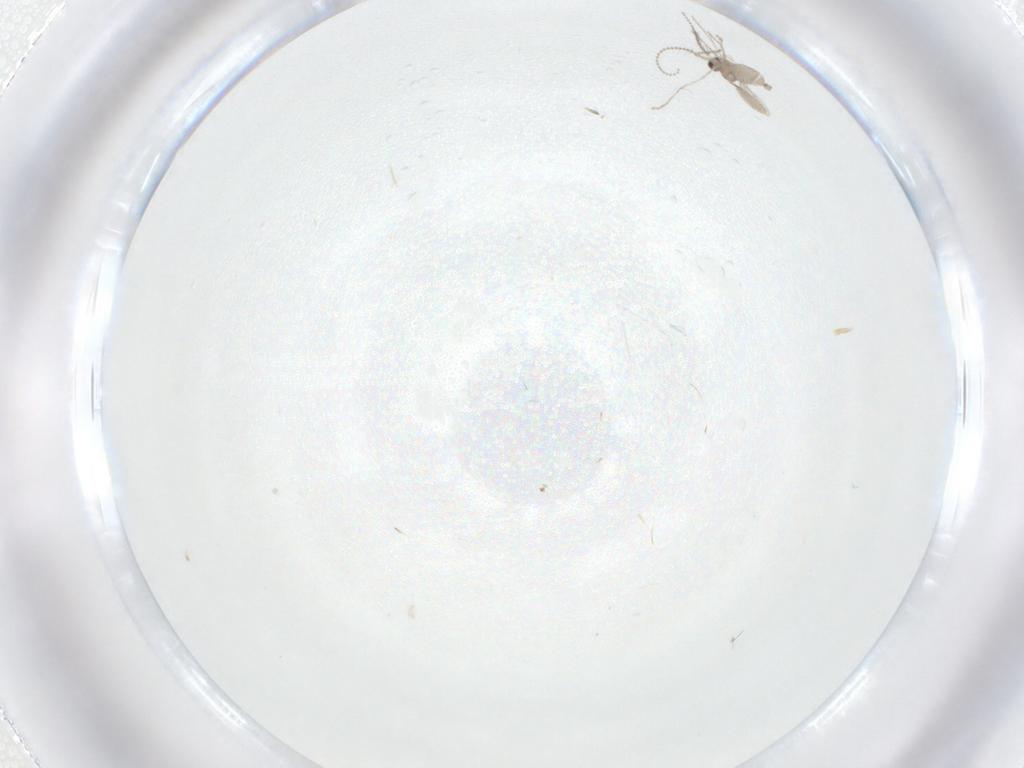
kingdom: Animalia
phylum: Arthropoda
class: Insecta
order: Diptera
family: Cecidomyiidae
